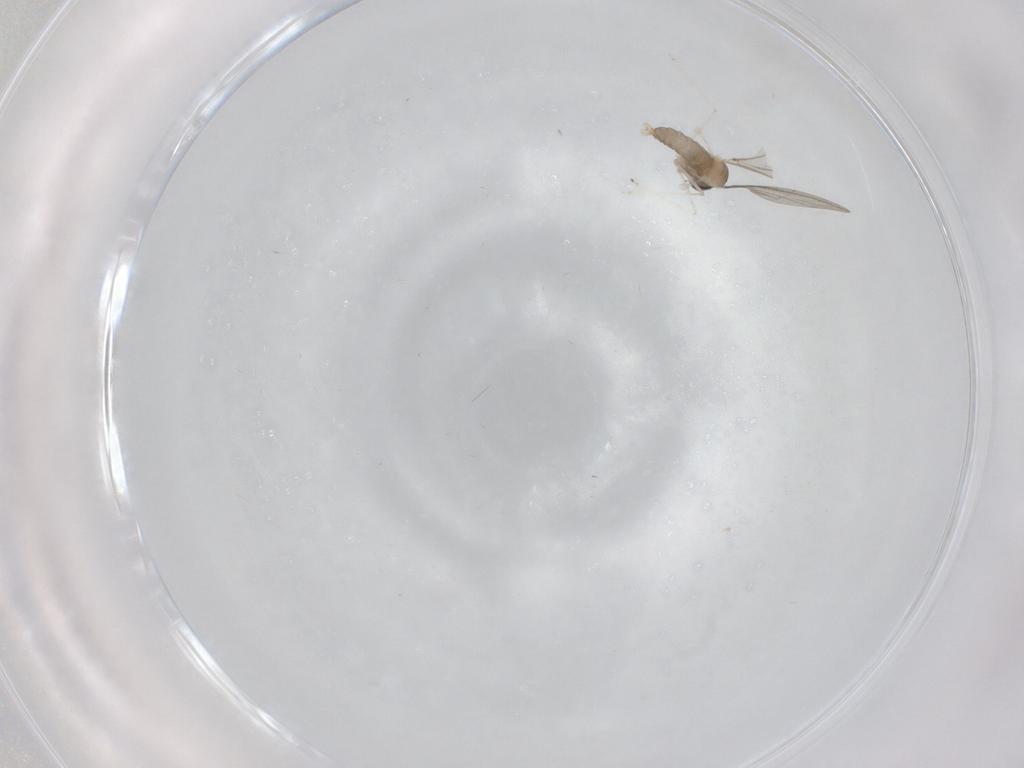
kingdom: Animalia
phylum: Arthropoda
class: Insecta
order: Diptera
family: Cecidomyiidae
